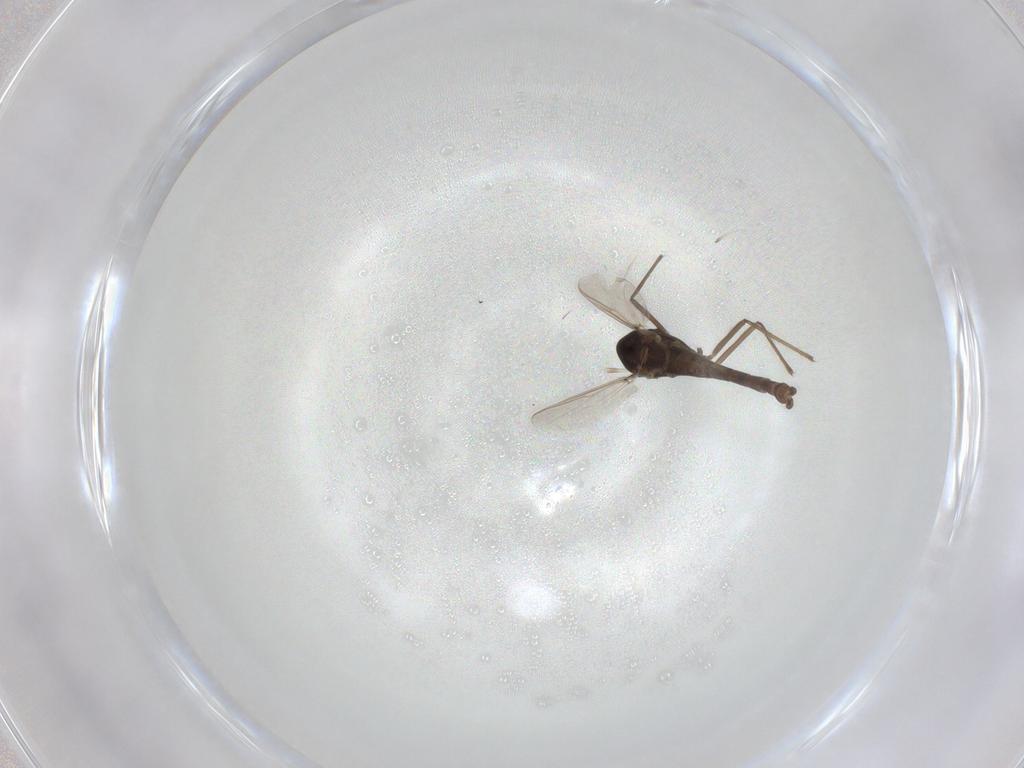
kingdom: Animalia
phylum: Arthropoda
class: Insecta
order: Diptera
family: Chironomidae
